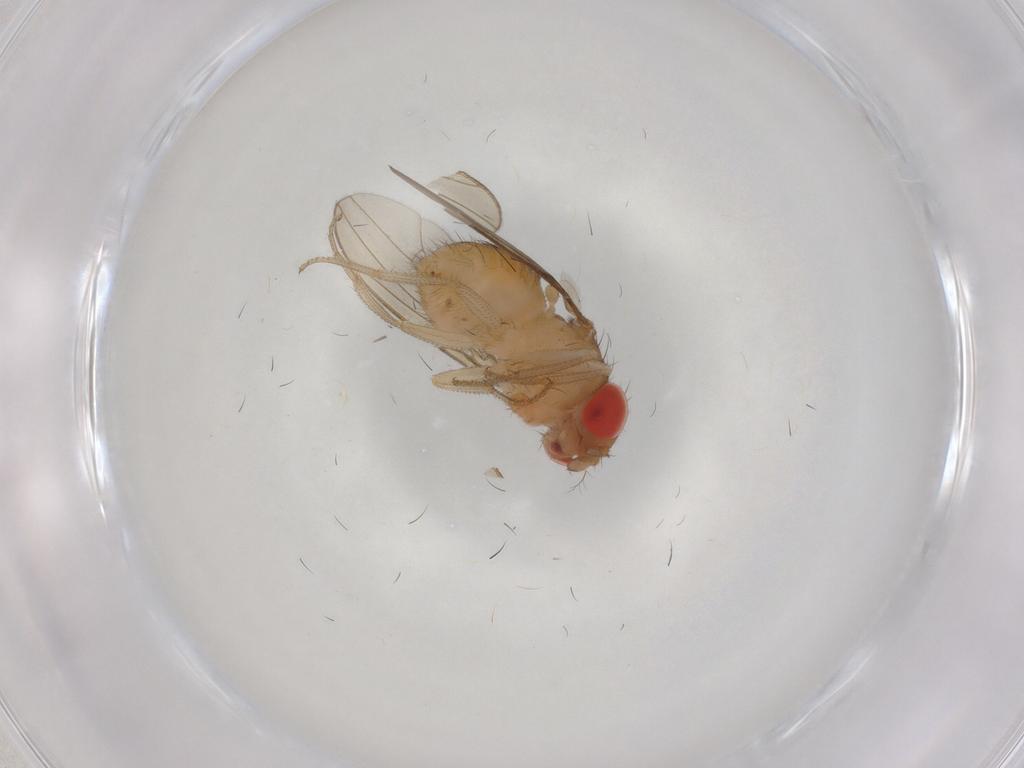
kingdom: Animalia
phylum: Arthropoda
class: Insecta
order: Diptera
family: Drosophilidae
